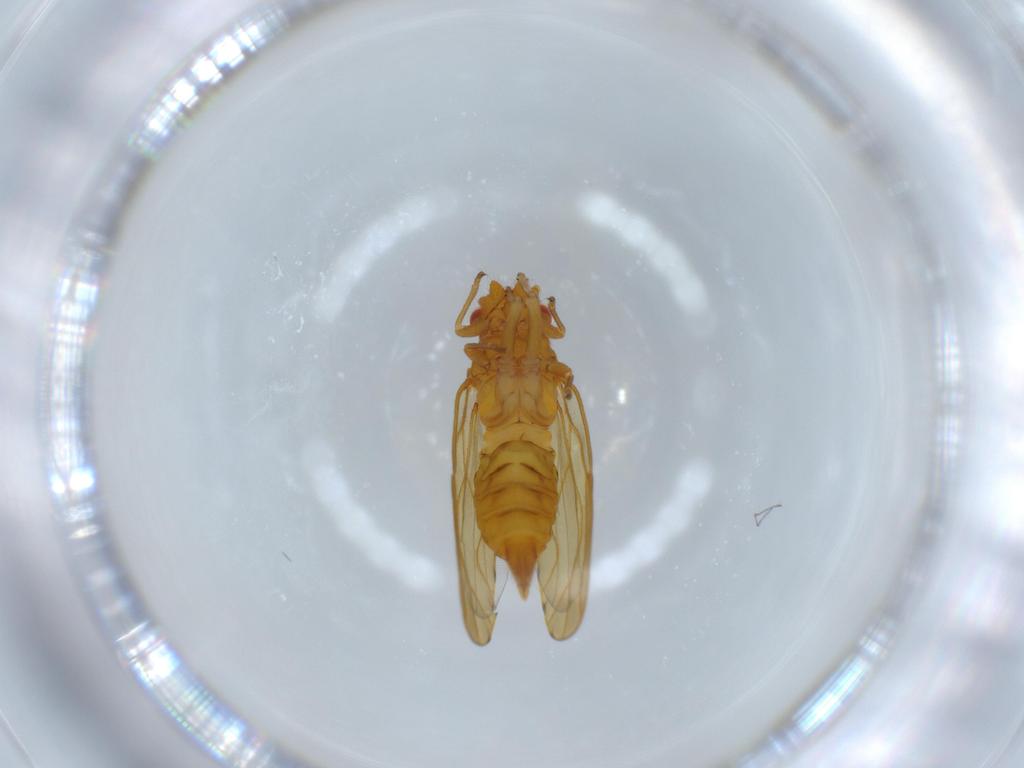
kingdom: Animalia
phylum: Arthropoda
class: Insecta
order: Hemiptera
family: Psylloidea_incertae_sedis
